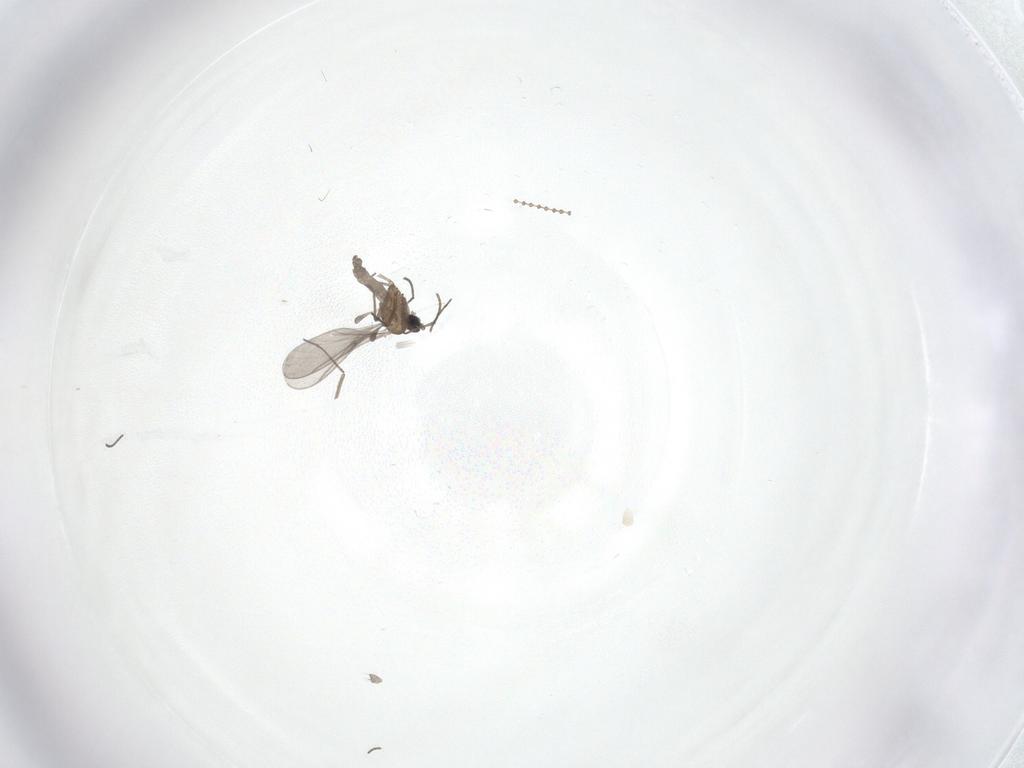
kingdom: Animalia
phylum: Arthropoda
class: Insecta
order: Diptera
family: Sciaridae
